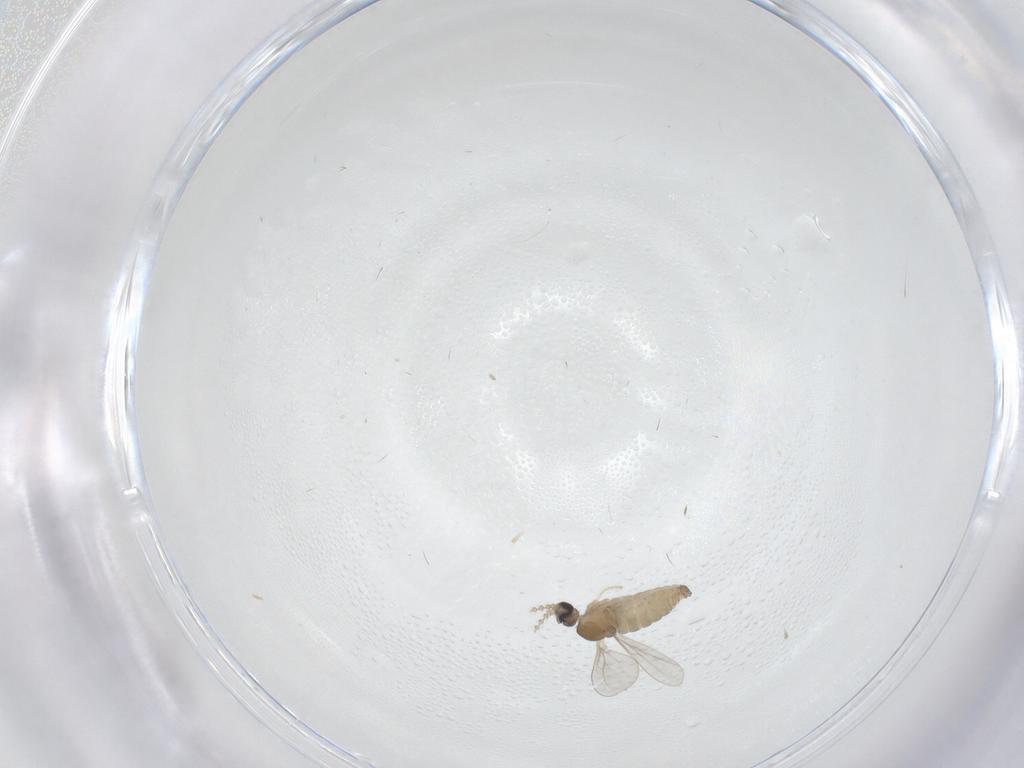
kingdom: Animalia
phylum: Arthropoda
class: Insecta
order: Diptera
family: Cecidomyiidae
